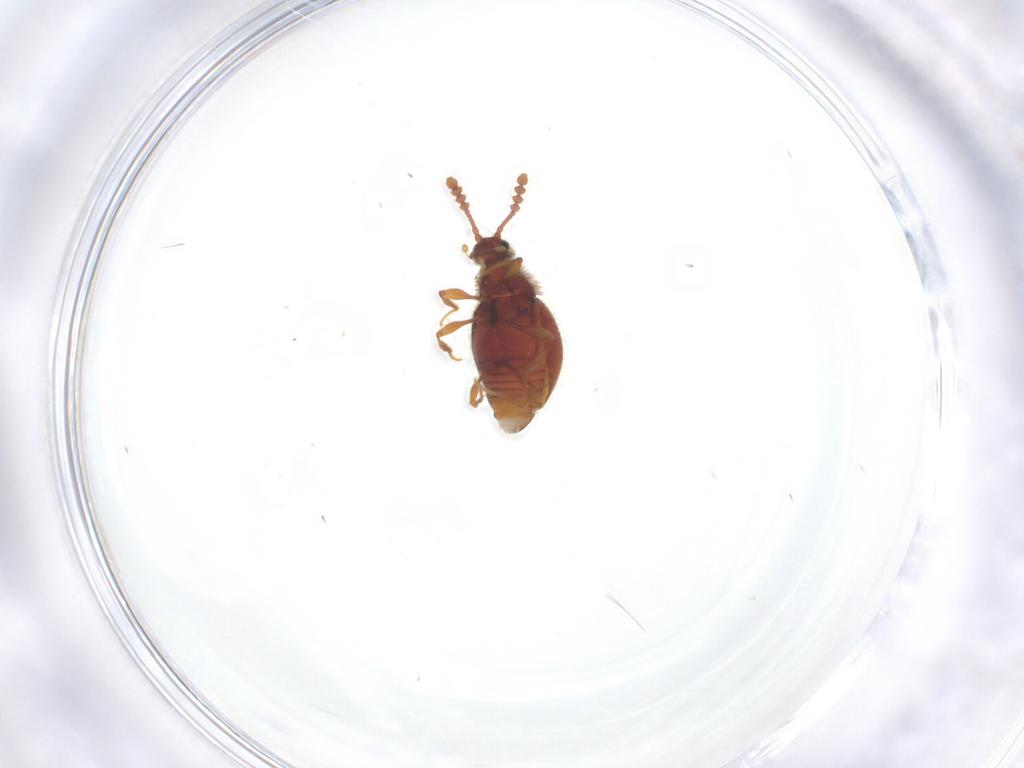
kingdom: Animalia
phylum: Arthropoda
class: Insecta
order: Coleoptera
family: Staphylinidae
